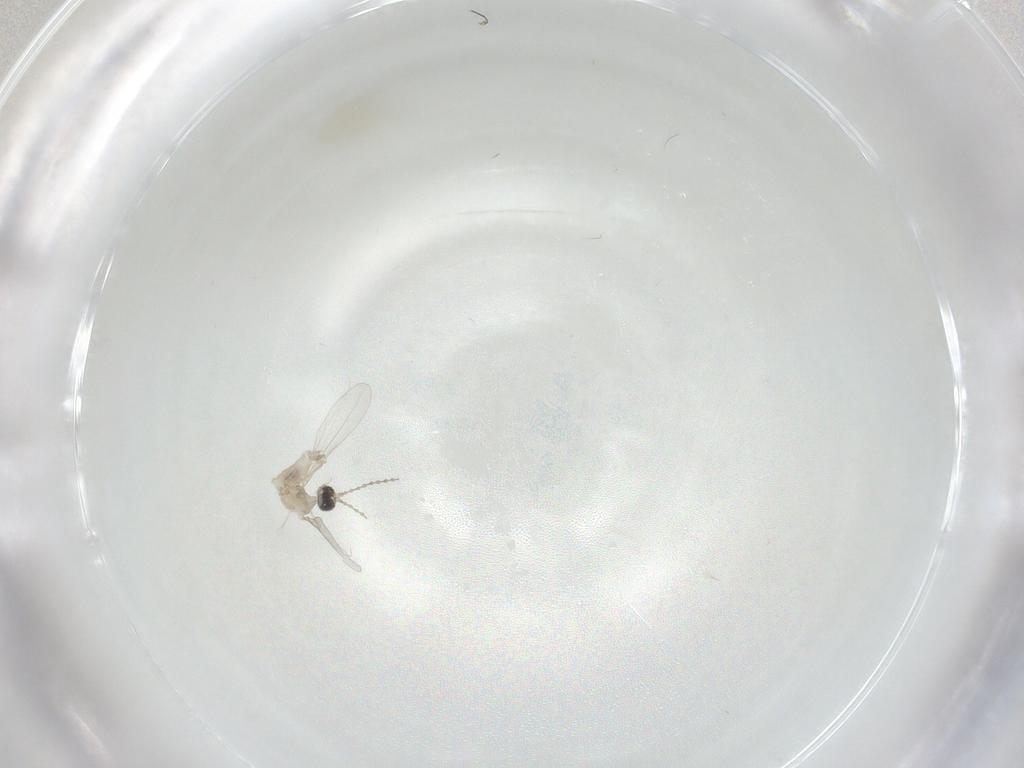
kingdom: Animalia
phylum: Arthropoda
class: Insecta
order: Diptera
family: Cecidomyiidae
